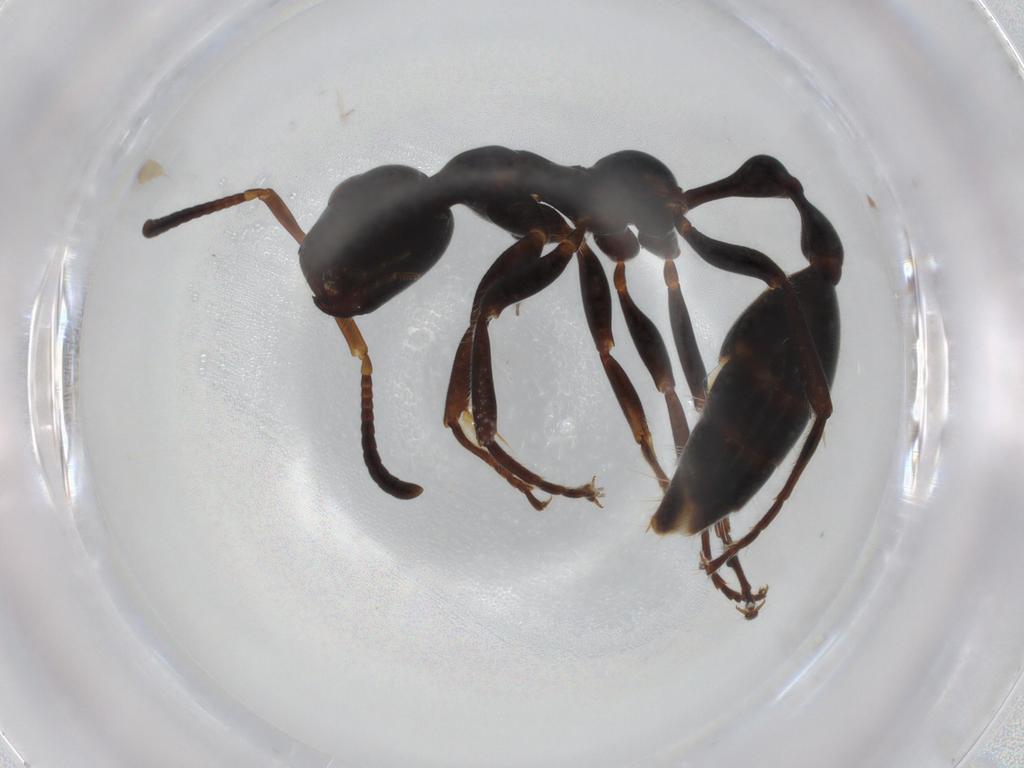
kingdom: Animalia
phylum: Arthropoda
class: Insecta
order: Hymenoptera
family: Formicidae
